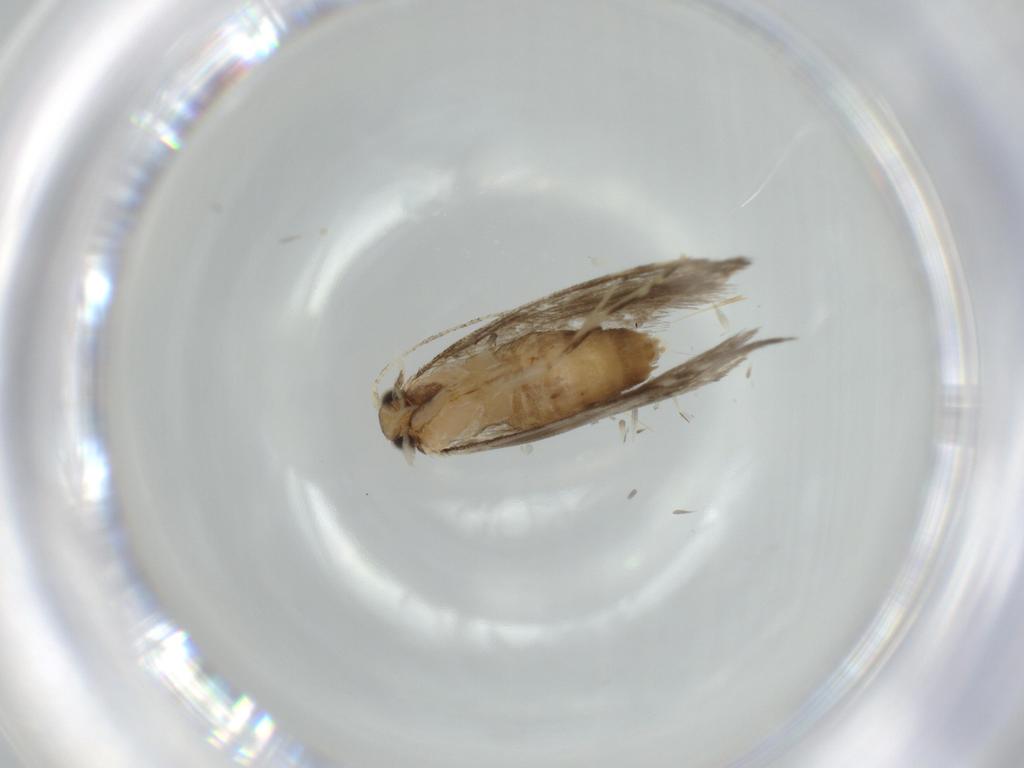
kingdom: Animalia
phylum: Arthropoda
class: Insecta
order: Lepidoptera
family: Tineidae
